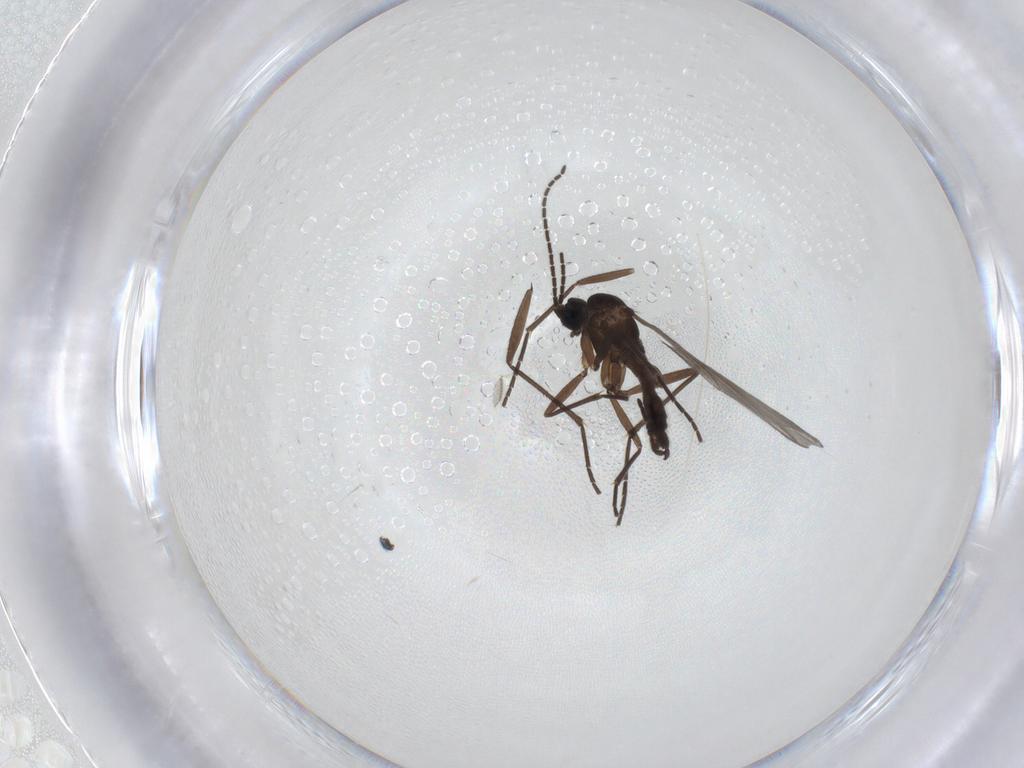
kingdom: Animalia
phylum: Arthropoda
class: Insecta
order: Diptera
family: Sciaridae
